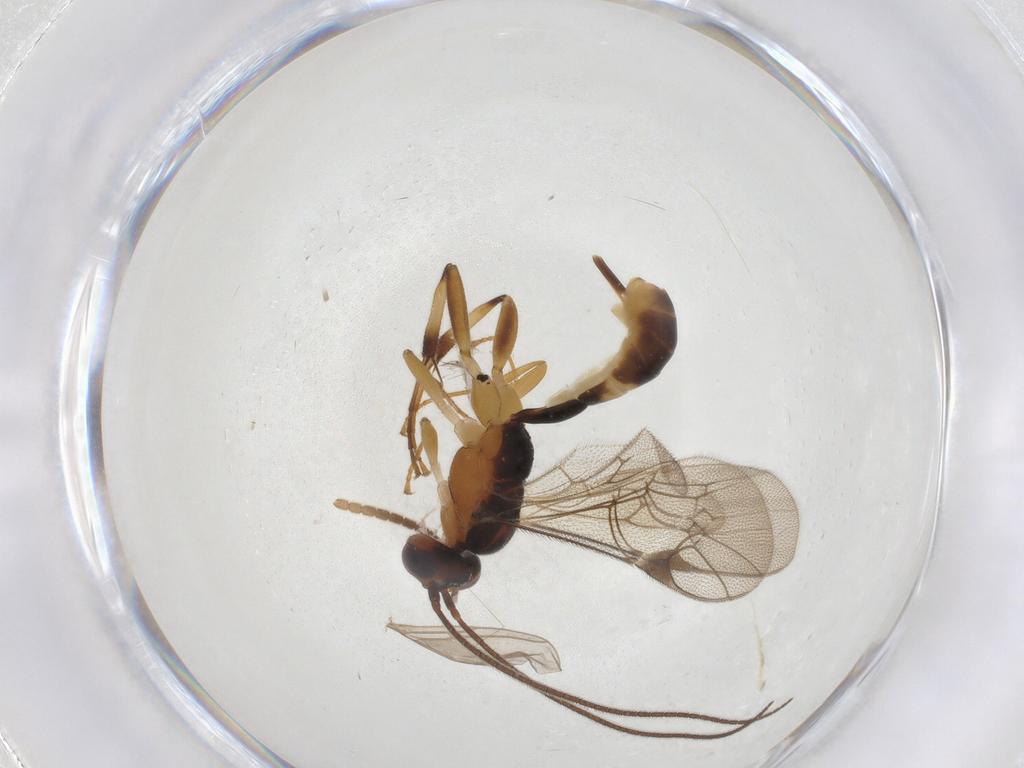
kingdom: Animalia
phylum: Arthropoda
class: Insecta
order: Hymenoptera
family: Ichneumonidae
